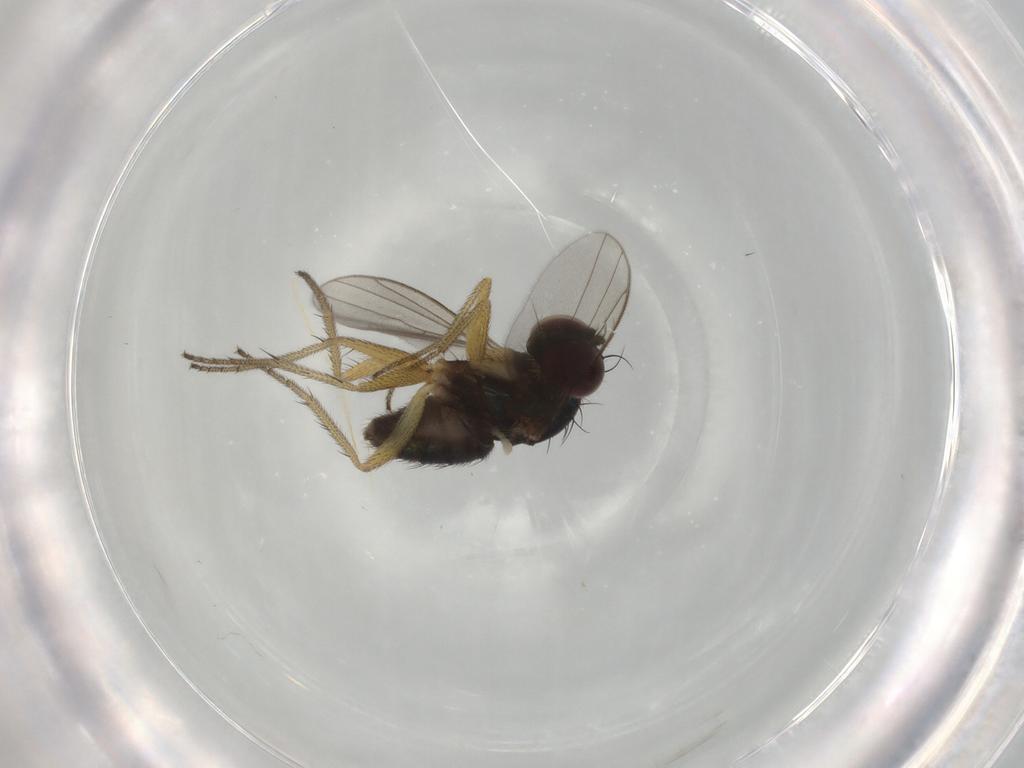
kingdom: Animalia
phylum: Arthropoda
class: Insecta
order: Diptera
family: Dolichopodidae
